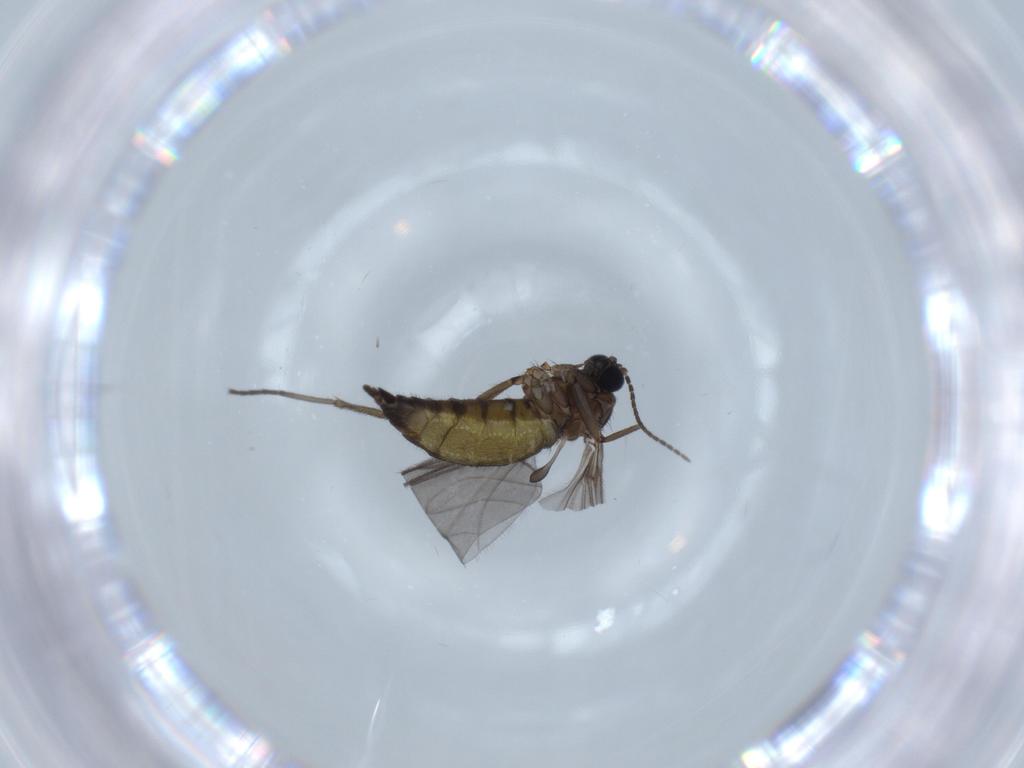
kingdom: Animalia
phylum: Arthropoda
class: Insecta
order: Diptera
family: Sciaridae
